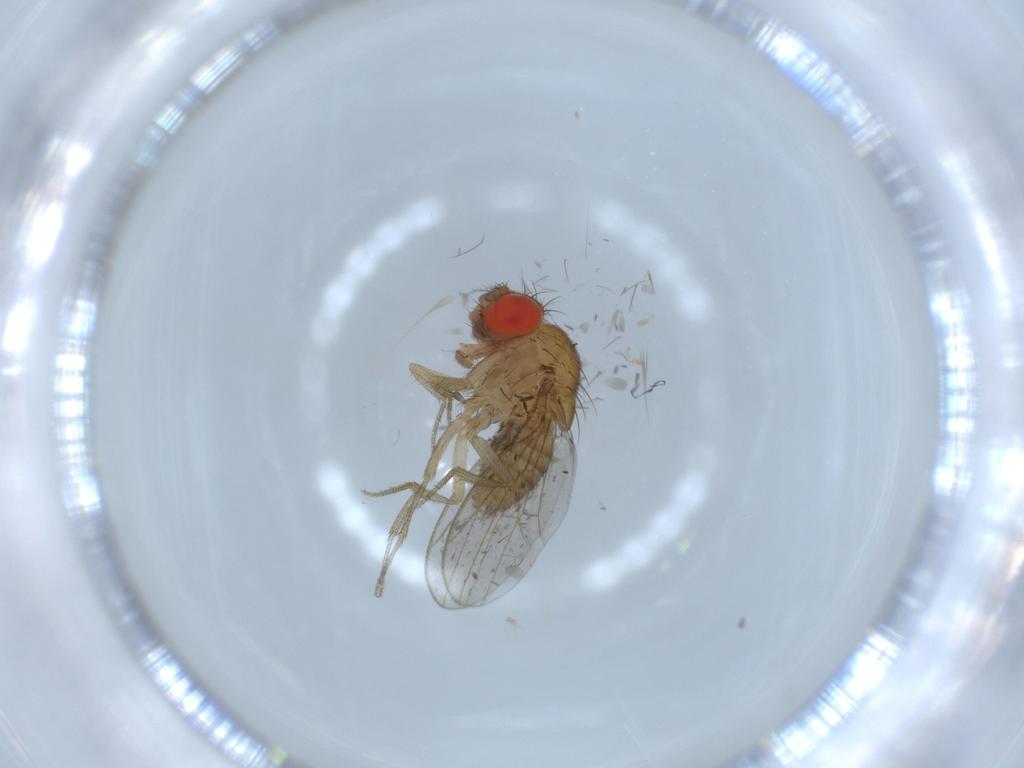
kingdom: Animalia
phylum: Arthropoda
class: Insecta
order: Diptera
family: Drosophilidae
